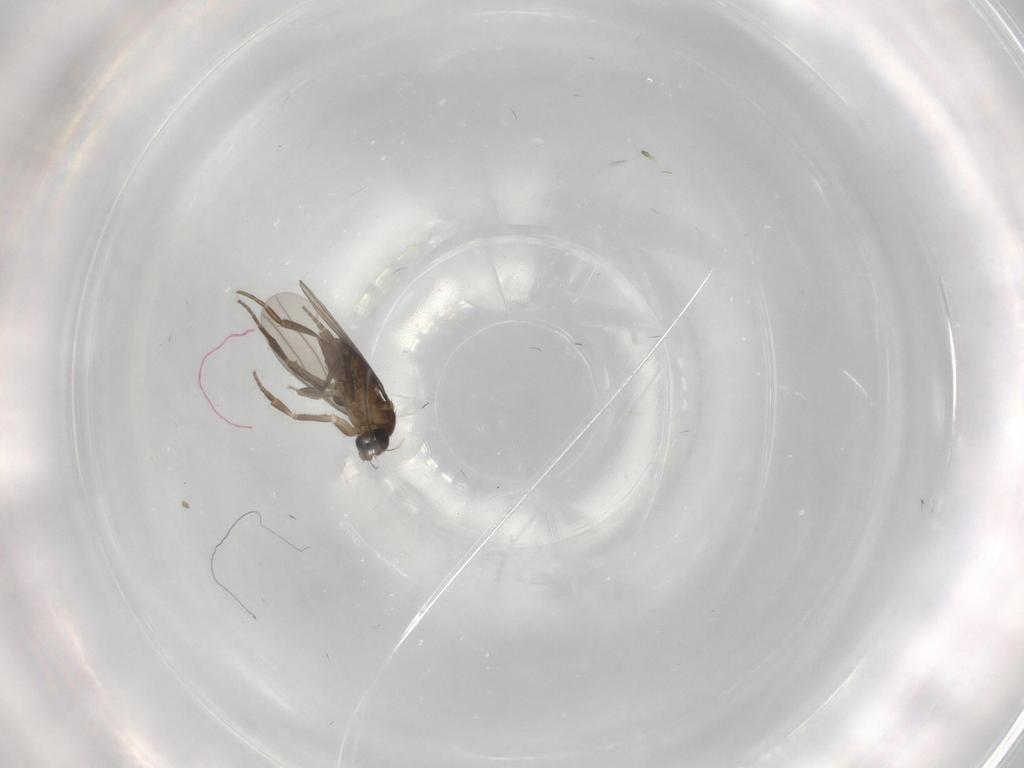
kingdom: Animalia
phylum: Arthropoda
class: Insecta
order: Diptera
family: Phoridae
